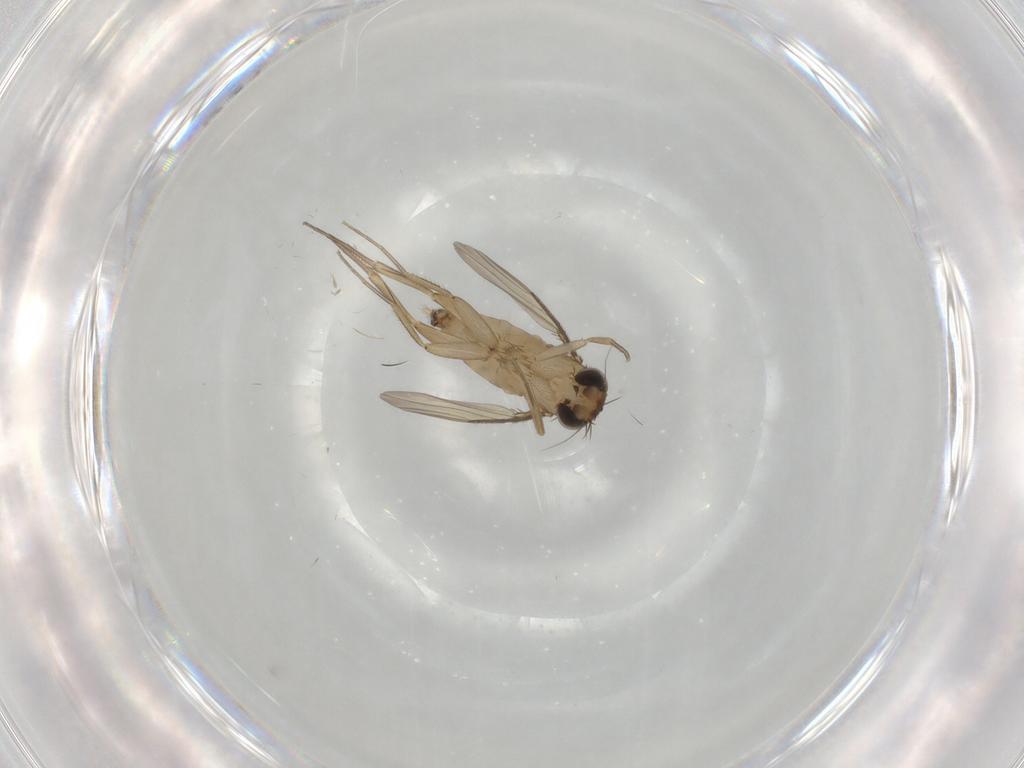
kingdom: Animalia
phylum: Arthropoda
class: Insecta
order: Diptera
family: Phoridae
